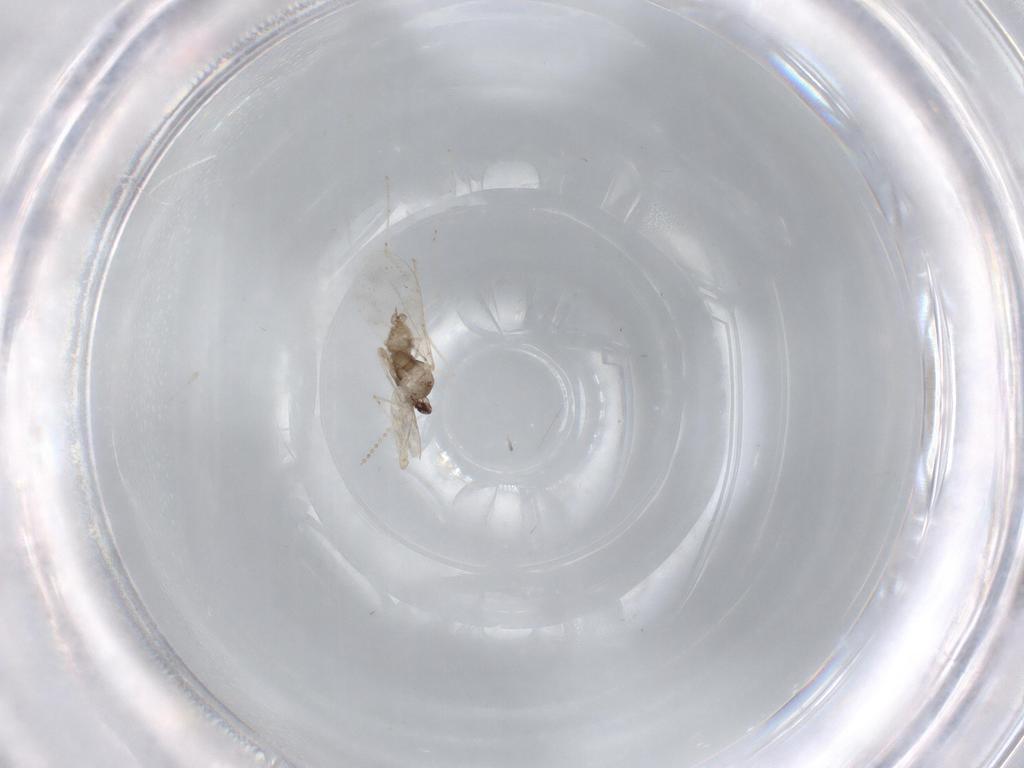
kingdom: Animalia
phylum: Arthropoda
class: Insecta
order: Diptera
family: Cecidomyiidae
